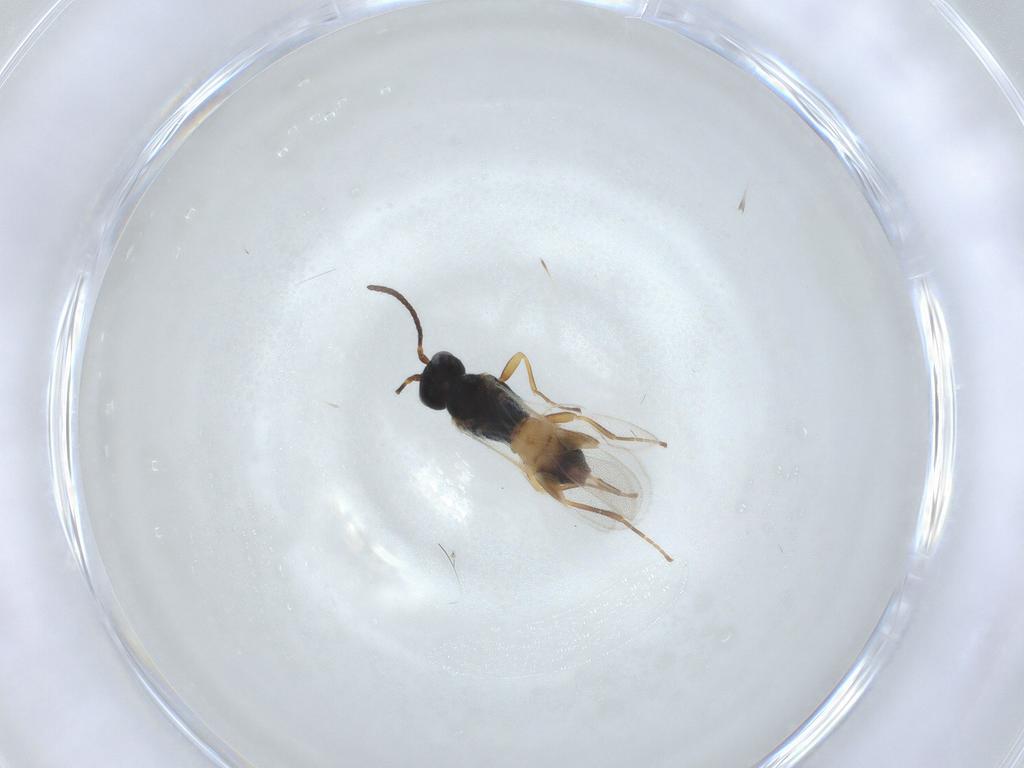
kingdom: Animalia
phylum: Arthropoda
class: Insecta
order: Hymenoptera
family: Braconidae
